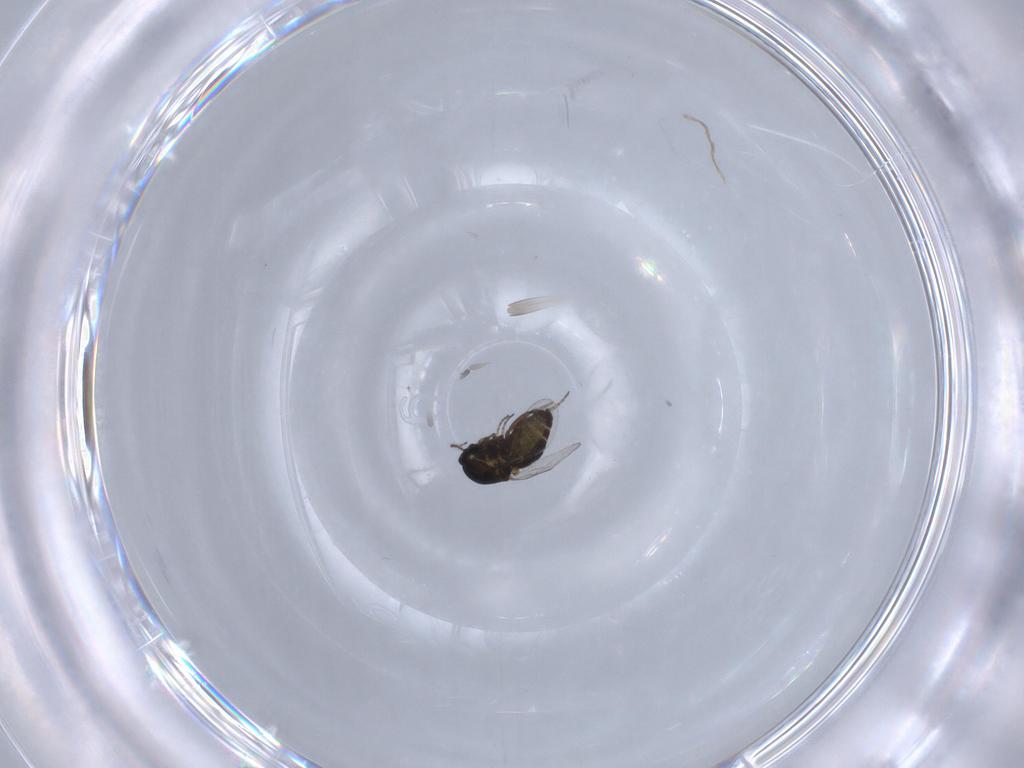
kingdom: Animalia
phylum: Arthropoda
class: Insecta
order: Diptera
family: Ceratopogonidae
